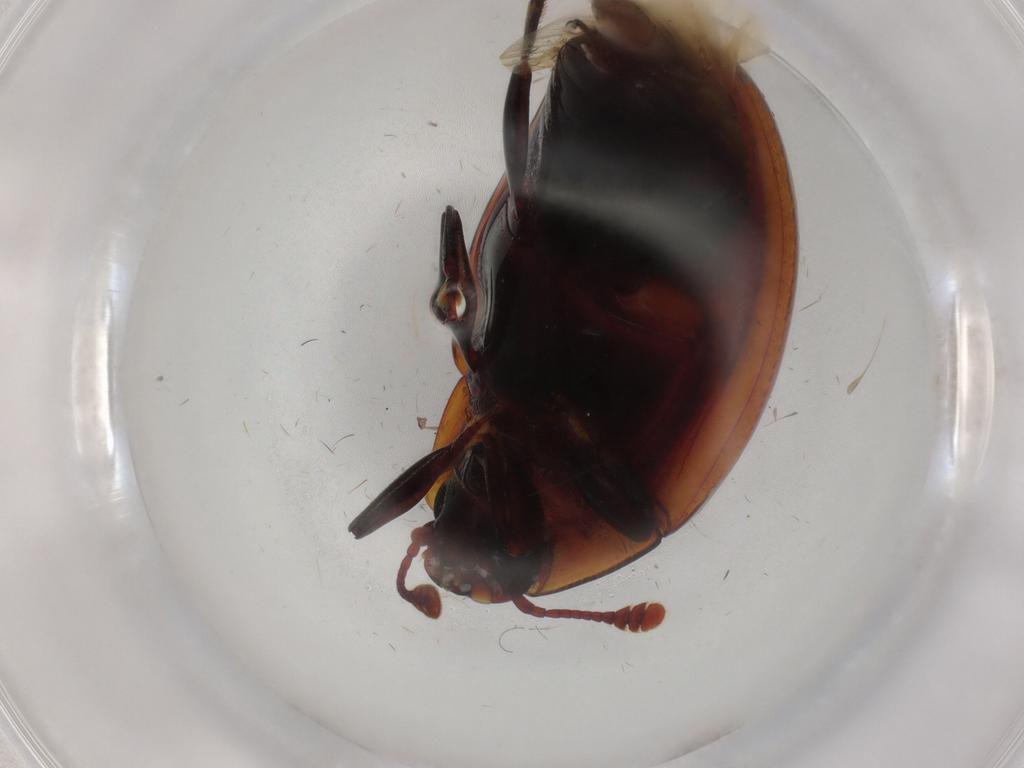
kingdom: Animalia
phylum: Arthropoda
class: Insecta
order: Coleoptera
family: Zopheridae
